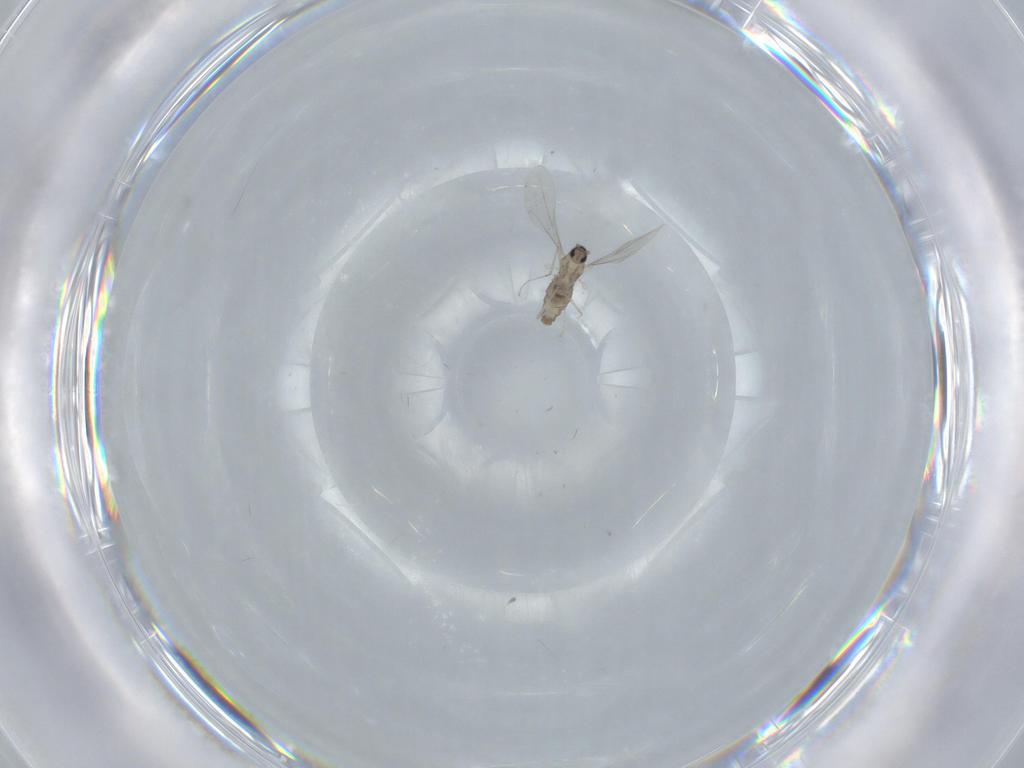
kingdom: Animalia
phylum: Arthropoda
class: Insecta
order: Diptera
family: Cecidomyiidae
